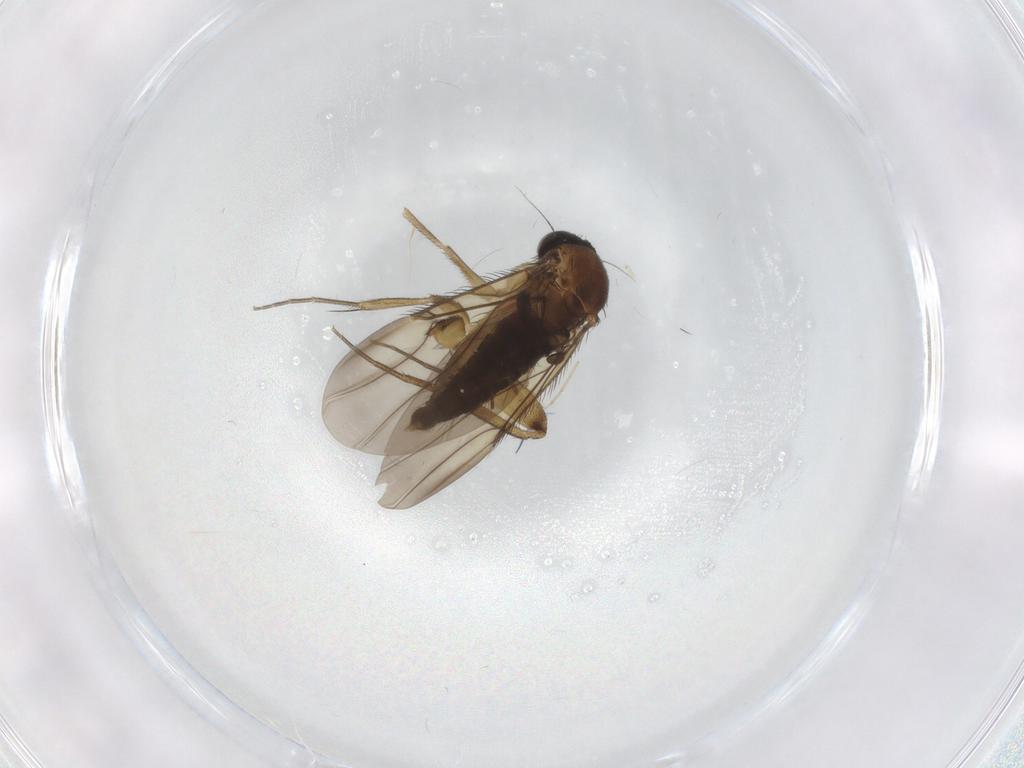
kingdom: Animalia
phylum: Arthropoda
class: Insecta
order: Diptera
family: Phoridae
